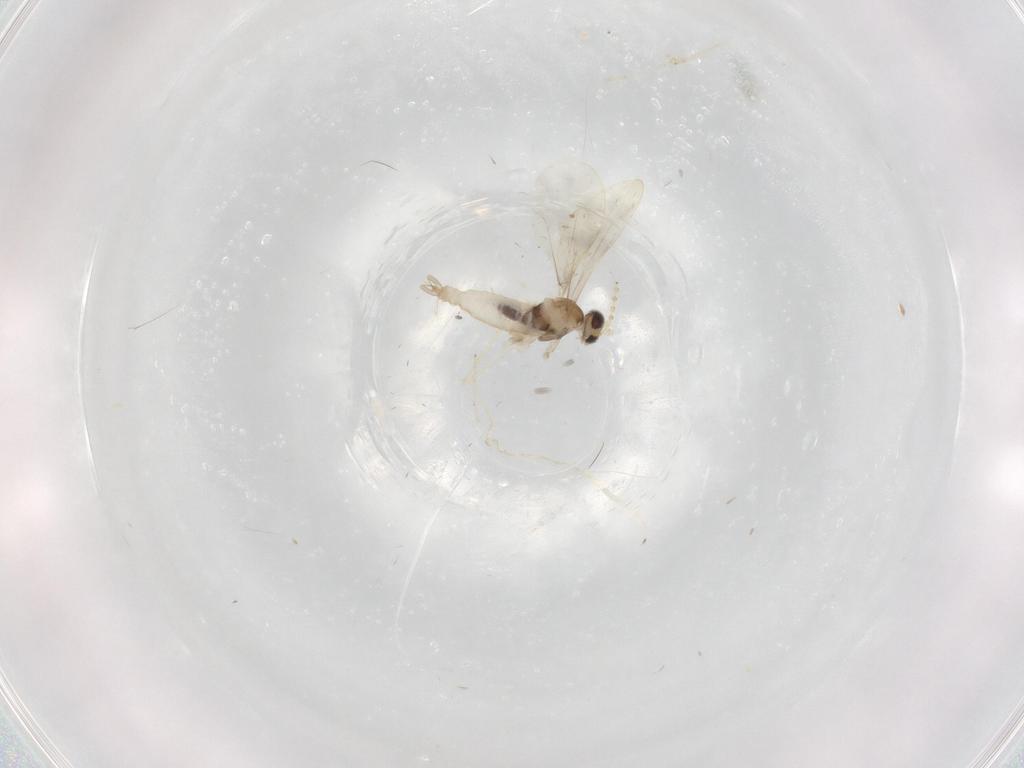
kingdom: Animalia
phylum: Arthropoda
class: Insecta
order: Diptera
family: Cecidomyiidae
